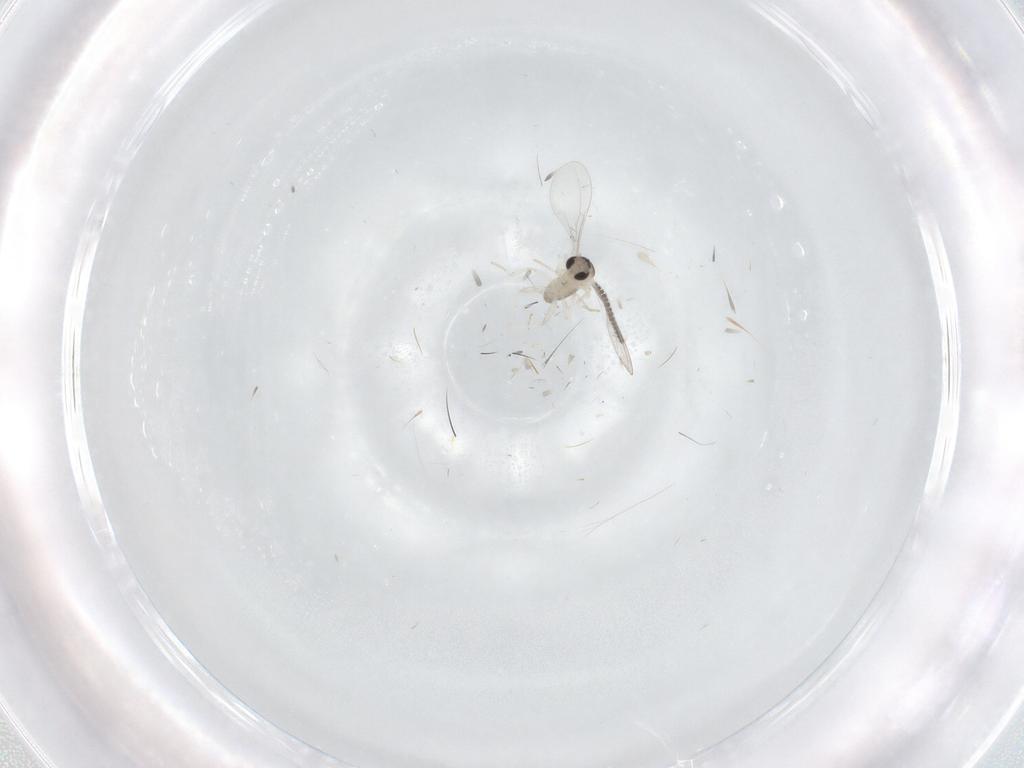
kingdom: Animalia
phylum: Arthropoda
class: Insecta
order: Diptera
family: Cecidomyiidae
